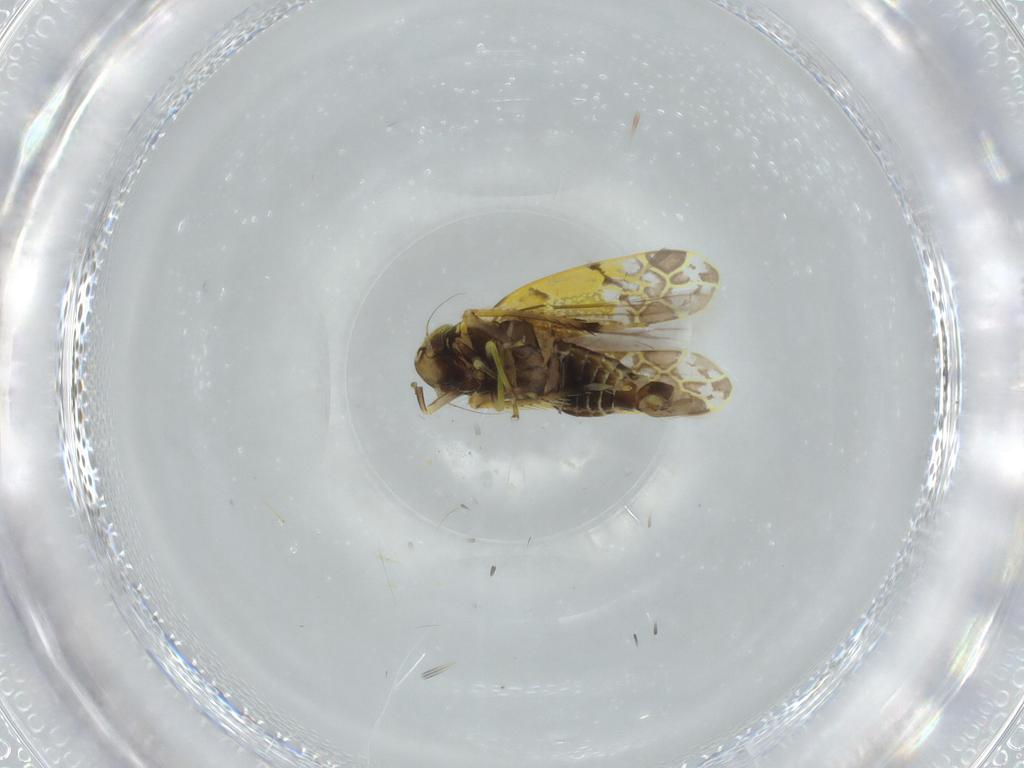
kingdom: Animalia
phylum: Arthropoda
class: Insecta
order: Hemiptera
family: Cicadellidae
